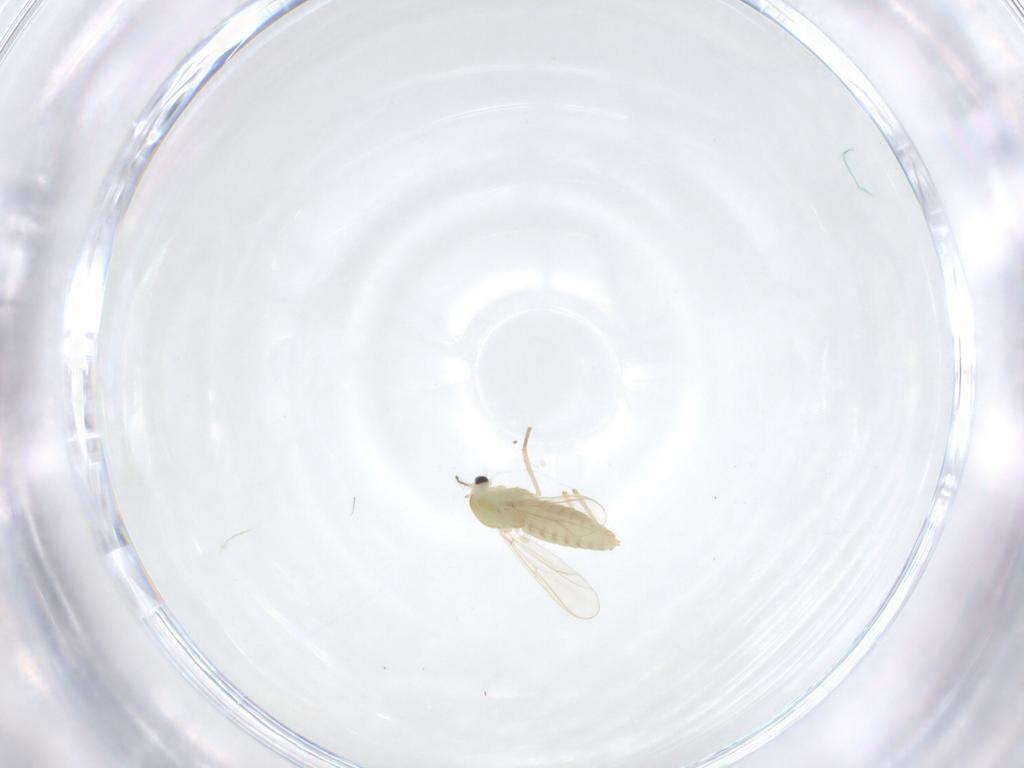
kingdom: Animalia
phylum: Arthropoda
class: Insecta
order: Diptera
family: Chironomidae
